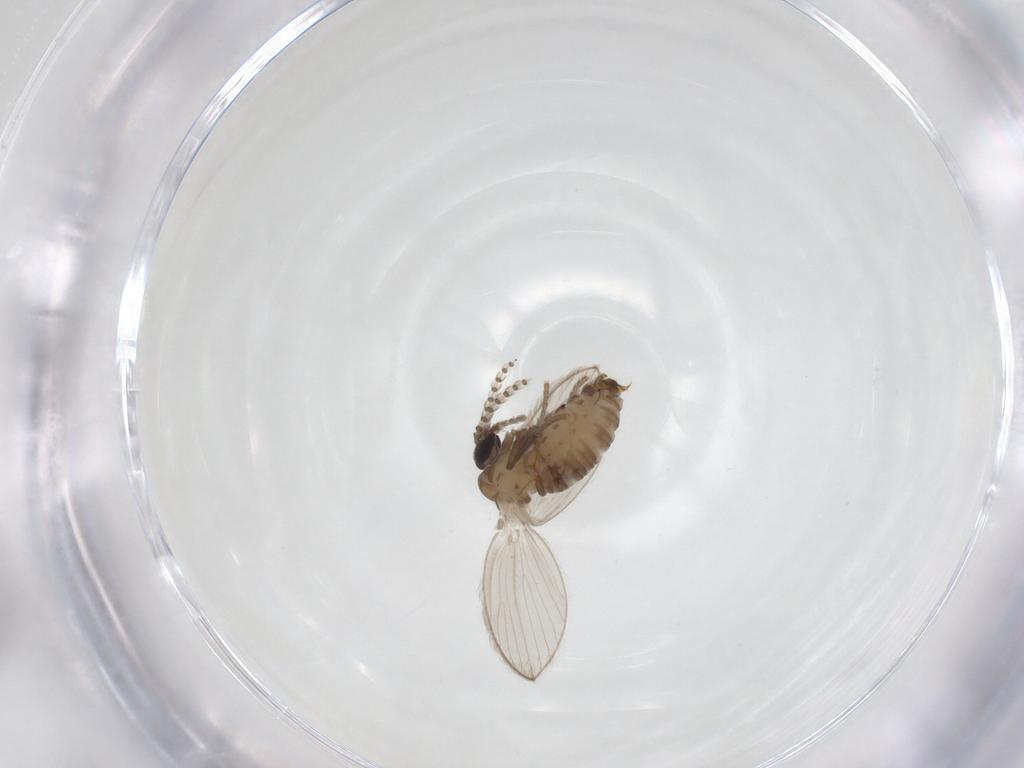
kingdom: Animalia
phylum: Arthropoda
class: Insecta
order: Diptera
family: Psychodidae
